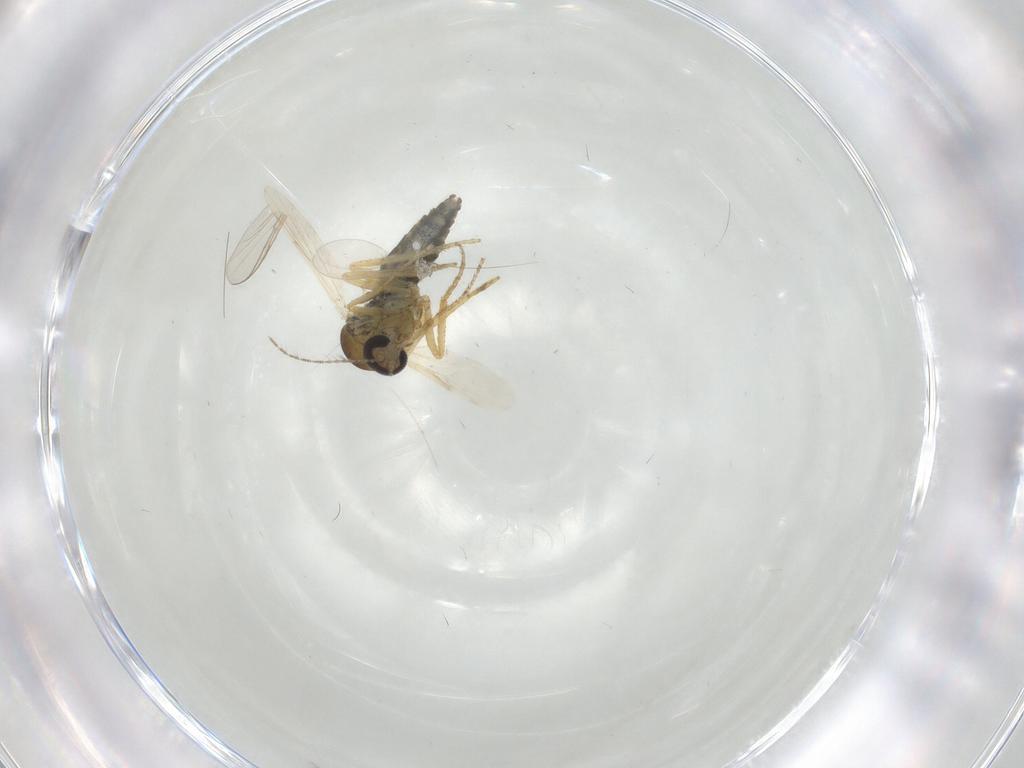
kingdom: Animalia
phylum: Arthropoda
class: Insecta
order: Diptera
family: Ceratopogonidae
